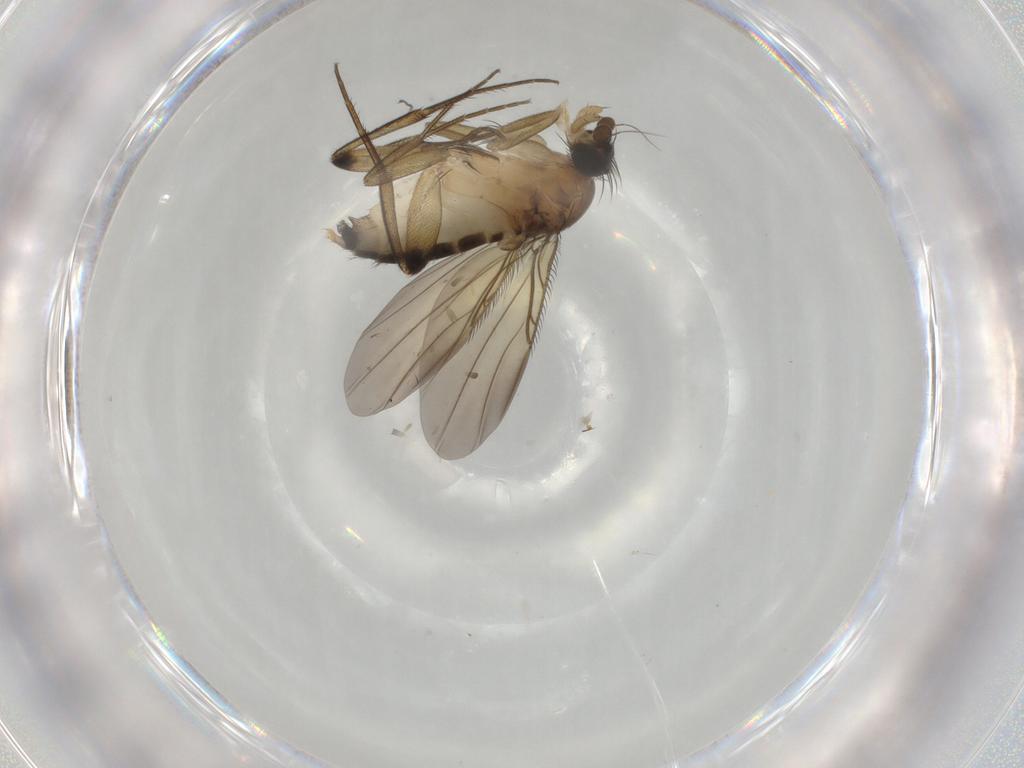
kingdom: Animalia
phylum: Arthropoda
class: Insecta
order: Diptera
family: Phoridae
